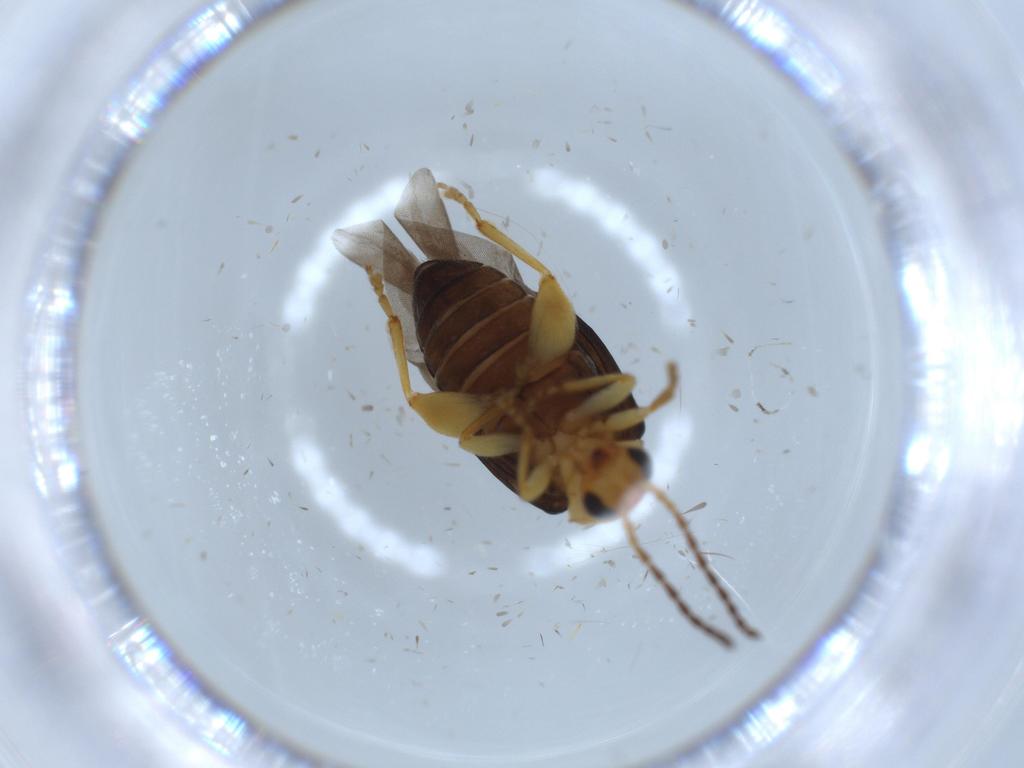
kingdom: Animalia
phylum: Arthropoda
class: Insecta
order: Coleoptera
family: Chrysomelidae
